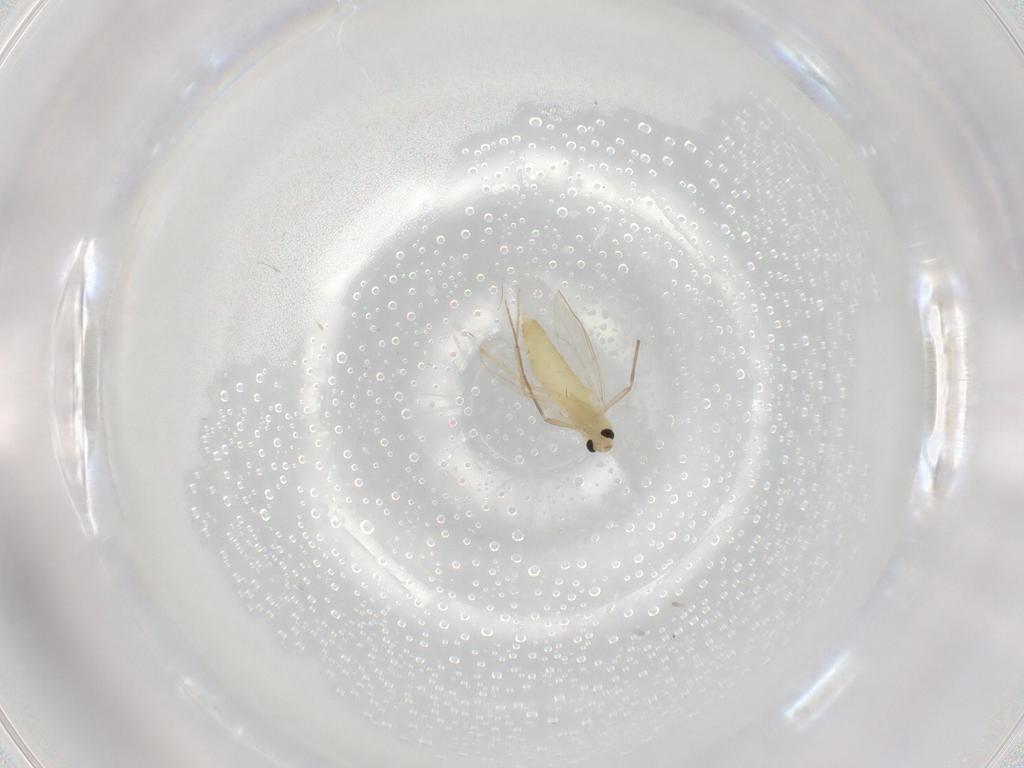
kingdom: Animalia
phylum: Arthropoda
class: Insecta
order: Diptera
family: Chironomidae
